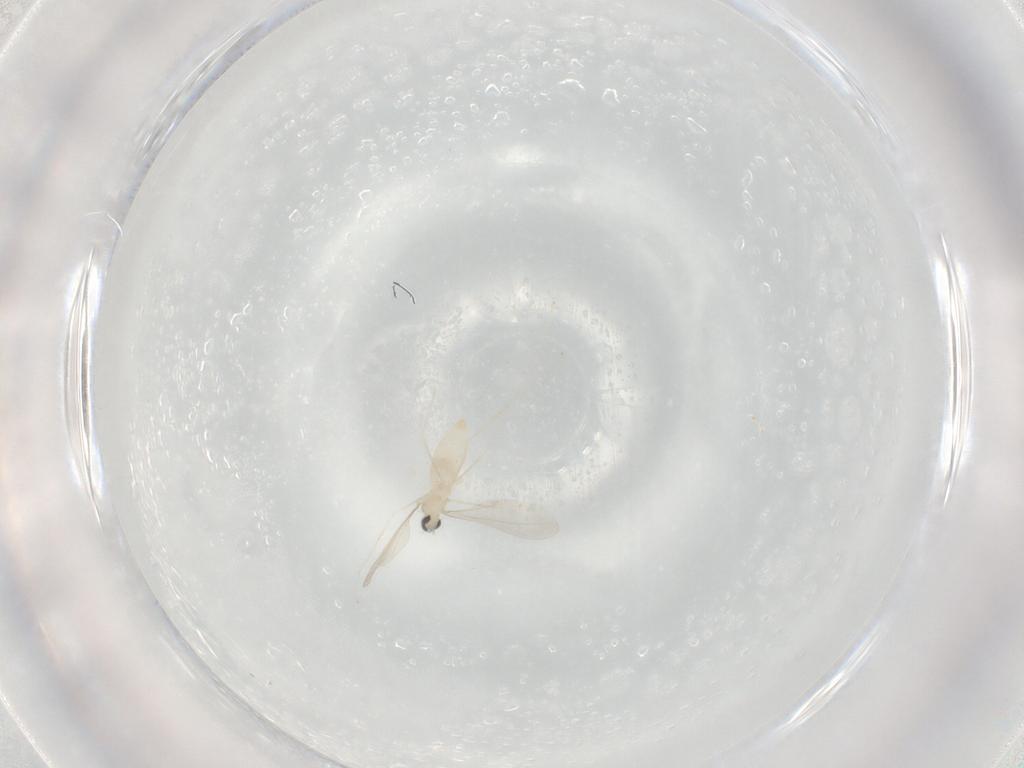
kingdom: Animalia
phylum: Arthropoda
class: Insecta
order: Diptera
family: Cecidomyiidae
